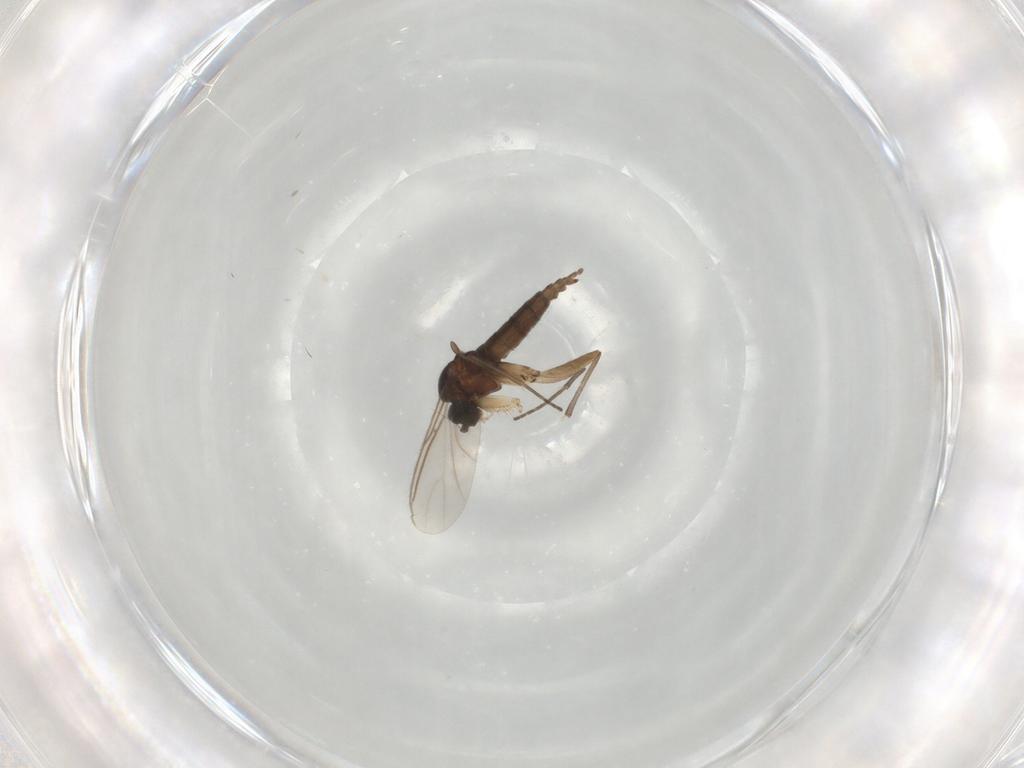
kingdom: Animalia
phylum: Arthropoda
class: Insecta
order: Diptera
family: Sciaridae
